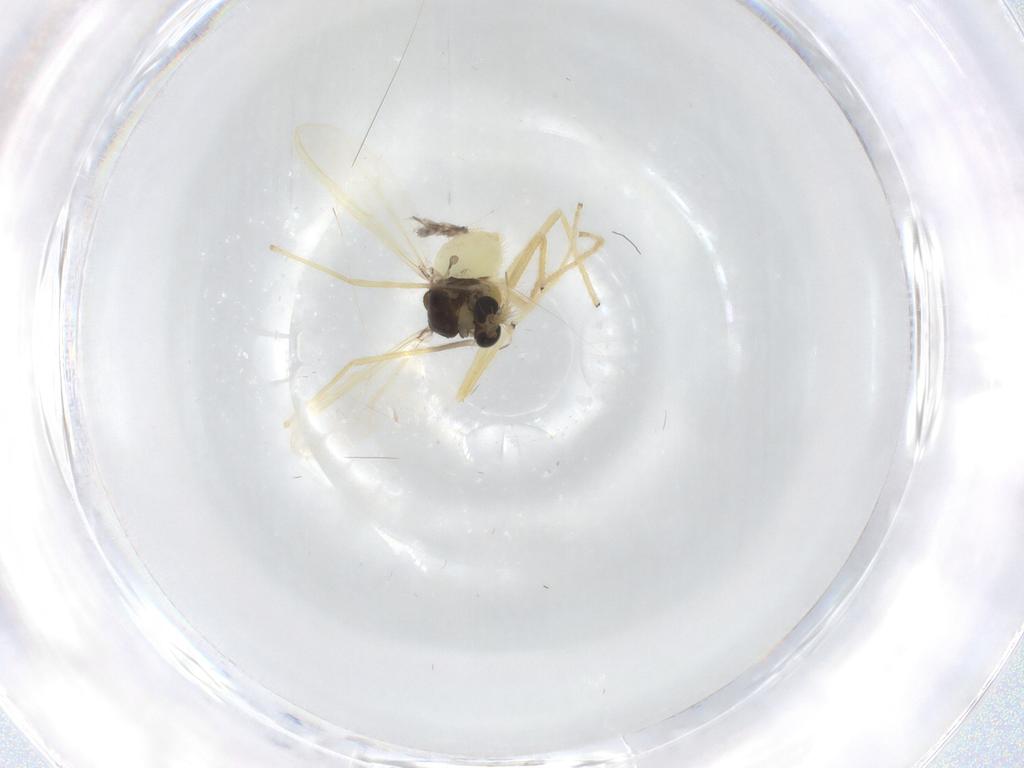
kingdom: Animalia
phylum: Arthropoda
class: Insecta
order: Diptera
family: Chironomidae
